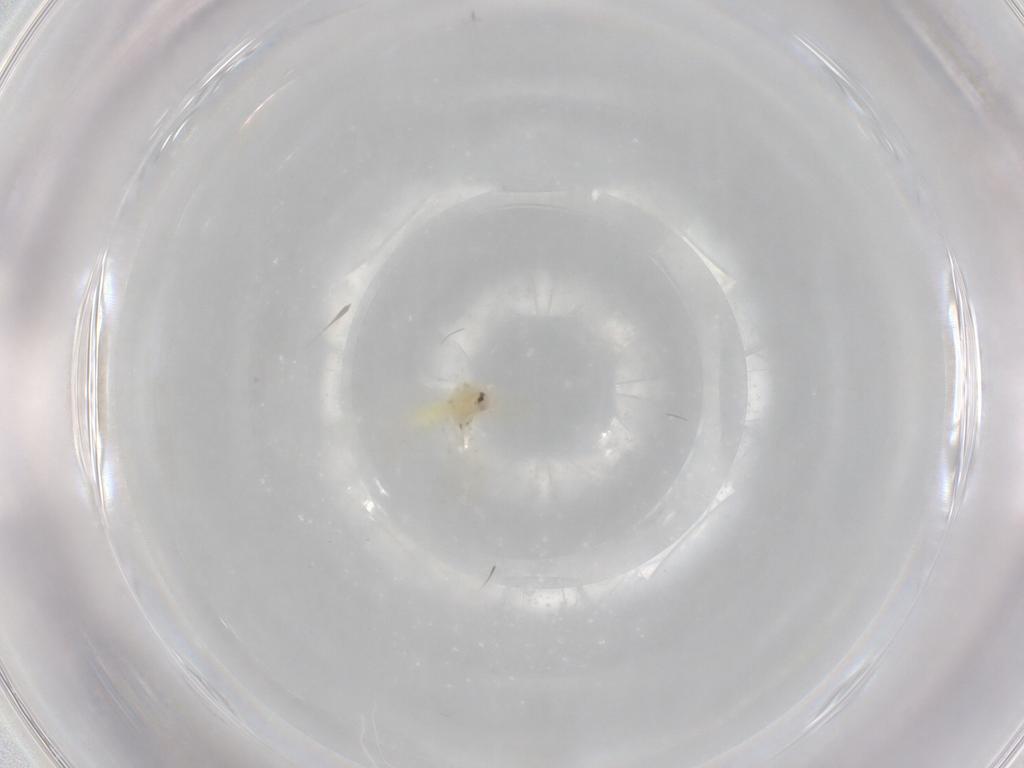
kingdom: Animalia
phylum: Arthropoda
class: Insecta
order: Hemiptera
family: Aleyrodidae
